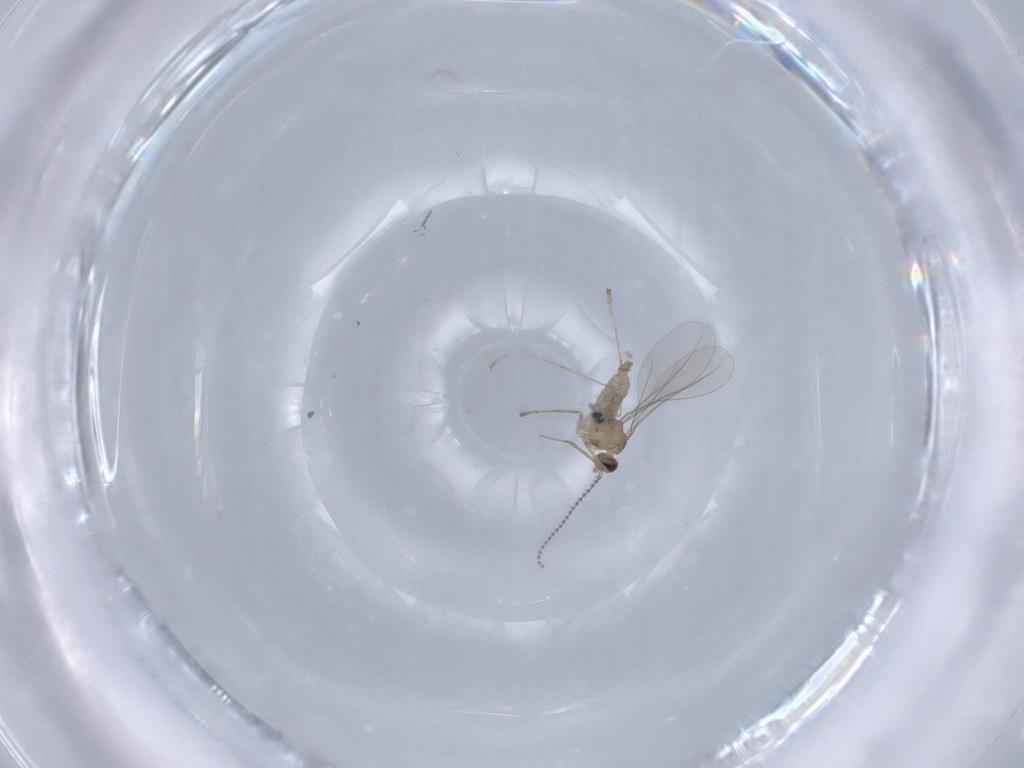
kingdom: Animalia
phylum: Arthropoda
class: Insecta
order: Diptera
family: Cecidomyiidae
